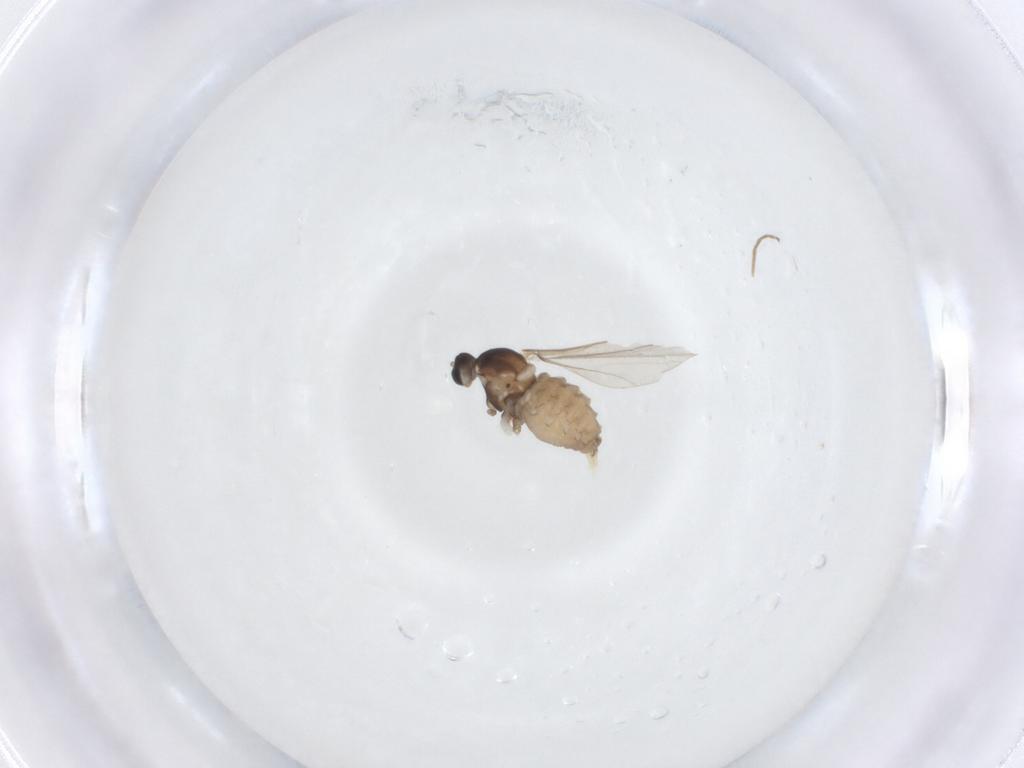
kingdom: Animalia
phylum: Arthropoda
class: Insecta
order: Diptera
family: Cecidomyiidae
